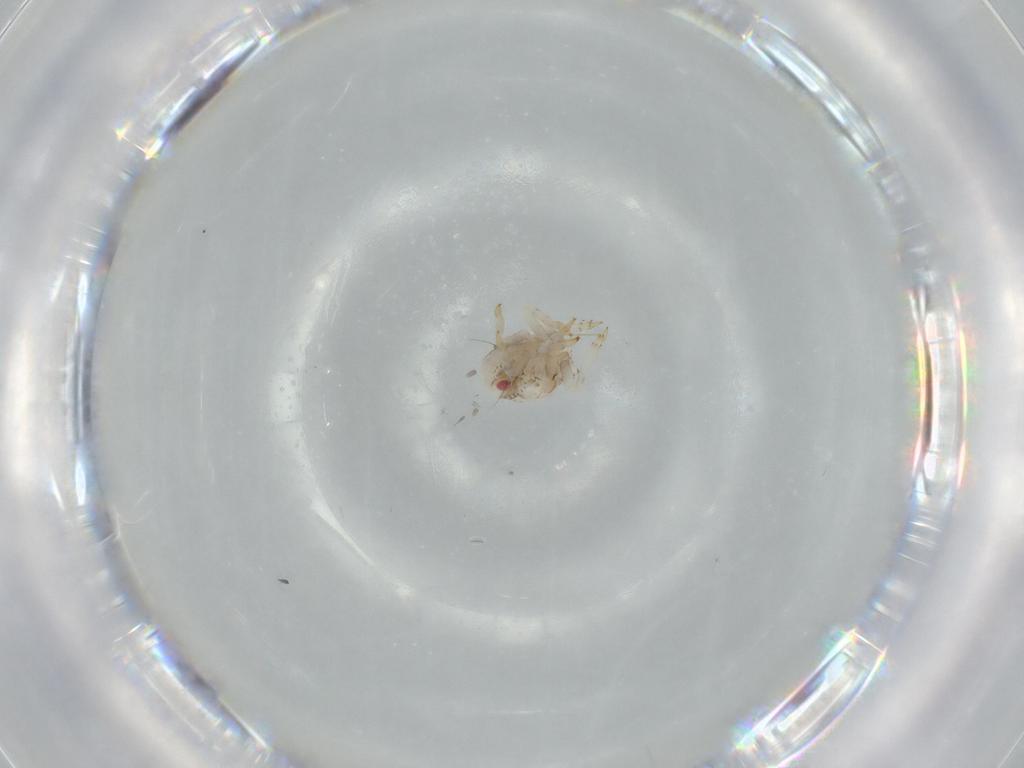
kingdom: Animalia
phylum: Arthropoda
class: Insecta
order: Hemiptera
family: Acanaloniidae
